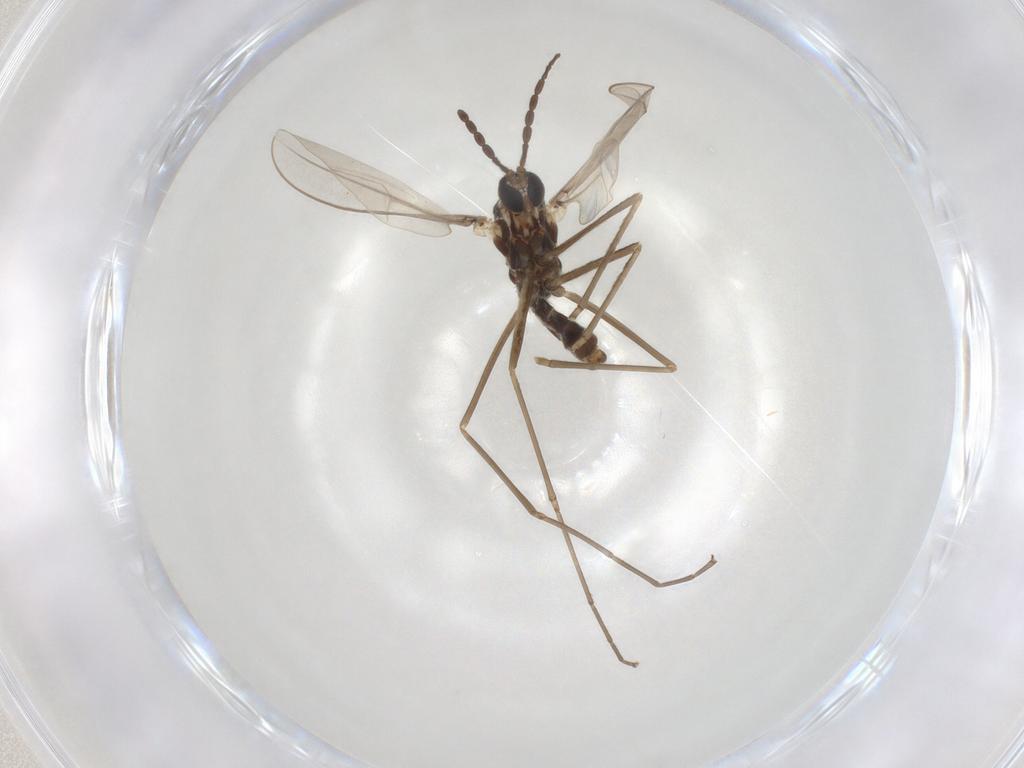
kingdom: Animalia
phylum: Arthropoda
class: Insecta
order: Diptera
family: Cecidomyiidae
